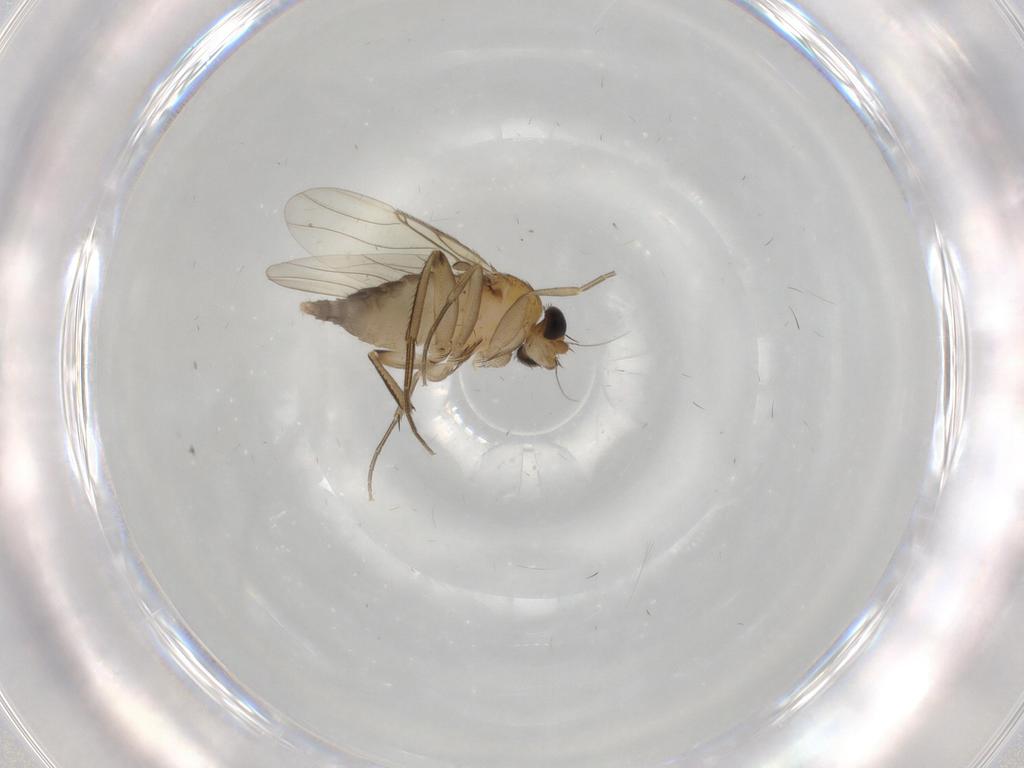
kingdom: Animalia
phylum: Arthropoda
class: Insecta
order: Diptera
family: Phoridae
